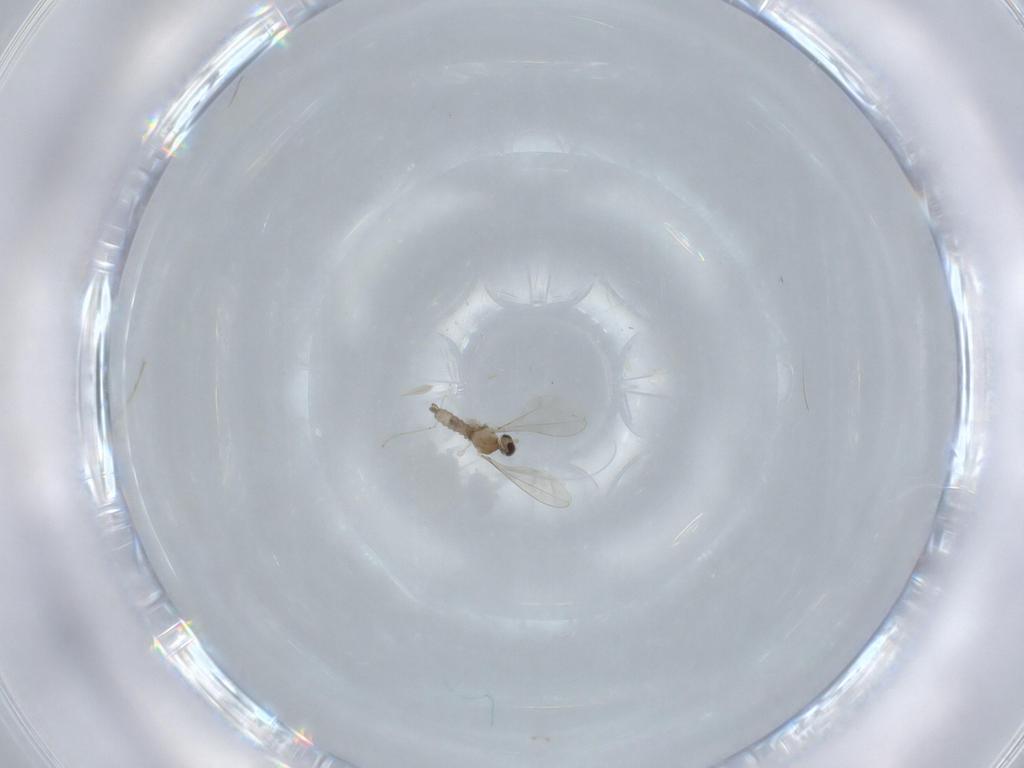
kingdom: Animalia
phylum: Arthropoda
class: Insecta
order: Diptera
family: Cecidomyiidae
